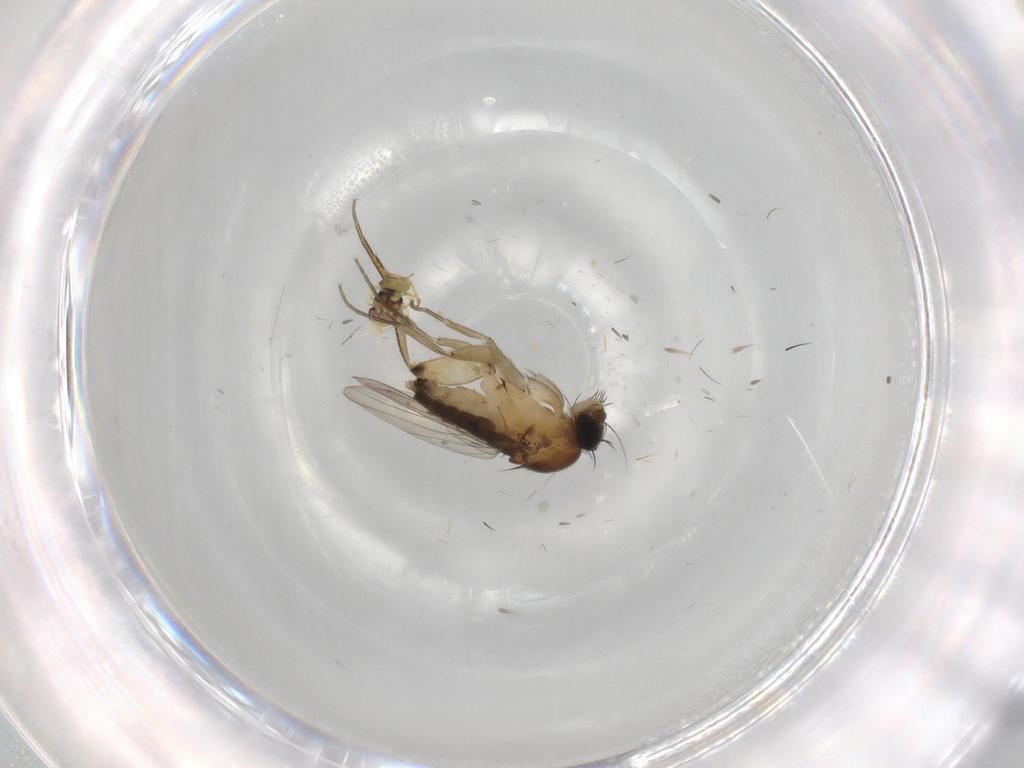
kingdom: Animalia
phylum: Arthropoda
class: Insecta
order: Diptera
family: Phoridae
